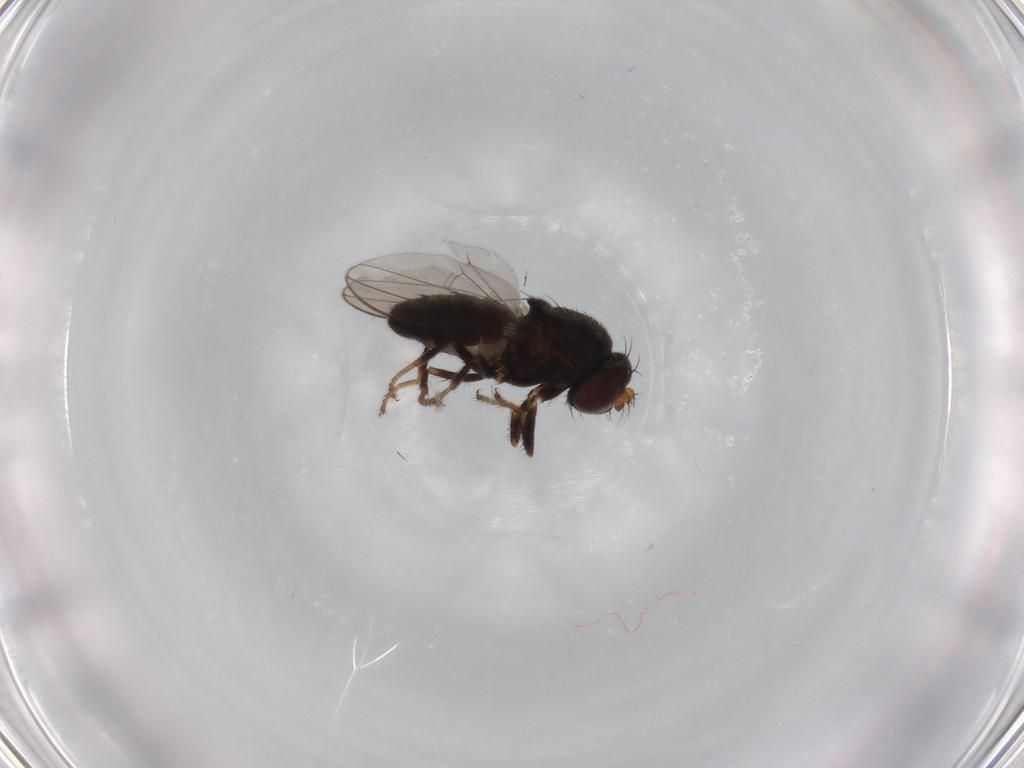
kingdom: Animalia
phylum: Arthropoda
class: Insecta
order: Diptera
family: Ephydridae
